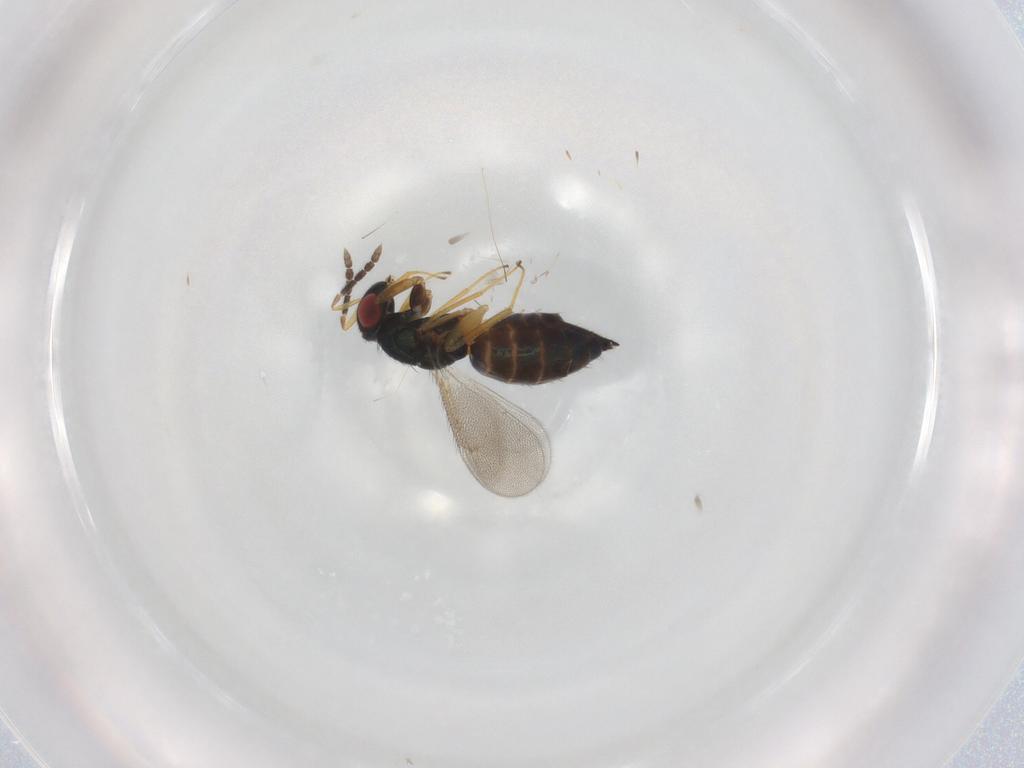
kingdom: Animalia
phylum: Arthropoda
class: Insecta
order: Hymenoptera
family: Eulophidae
